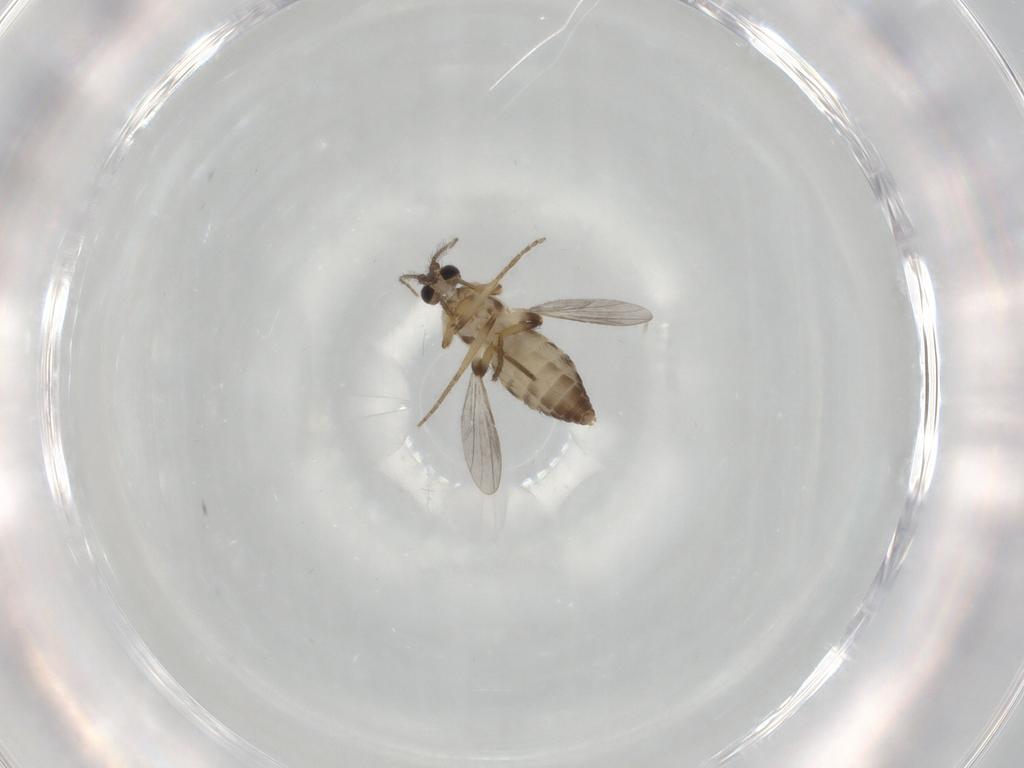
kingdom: Animalia
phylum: Arthropoda
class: Insecta
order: Diptera
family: Ceratopogonidae
